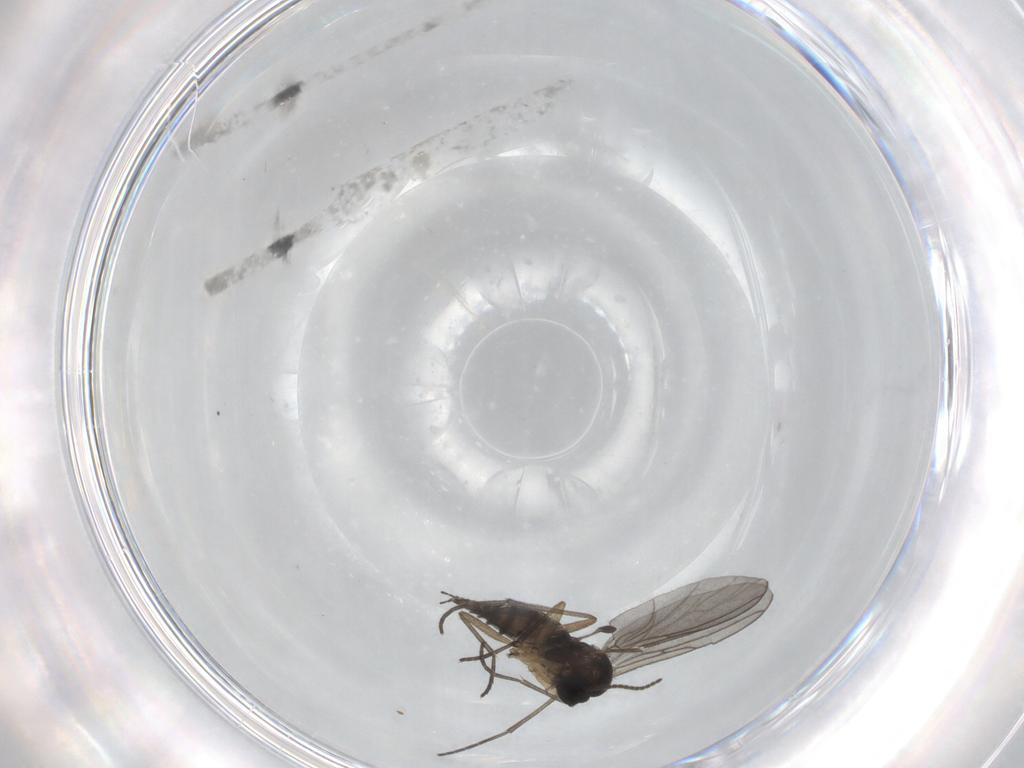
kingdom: Animalia
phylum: Arthropoda
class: Insecta
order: Diptera
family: Sciaridae
